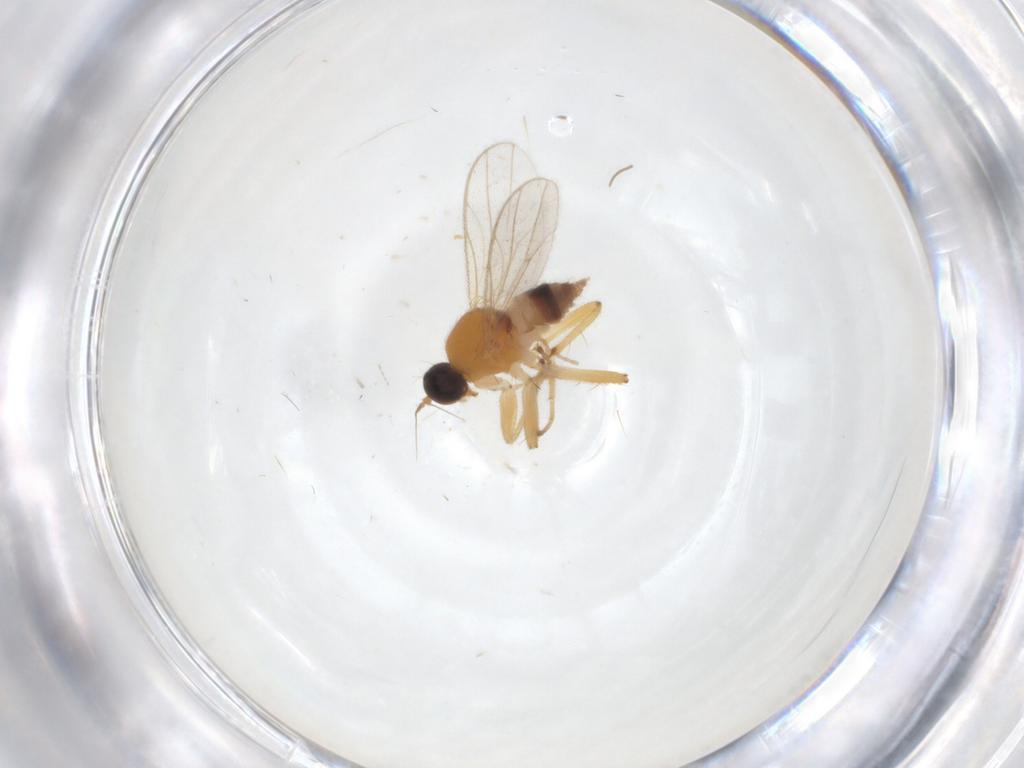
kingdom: Animalia
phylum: Arthropoda
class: Insecta
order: Diptera
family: Hybotidae
